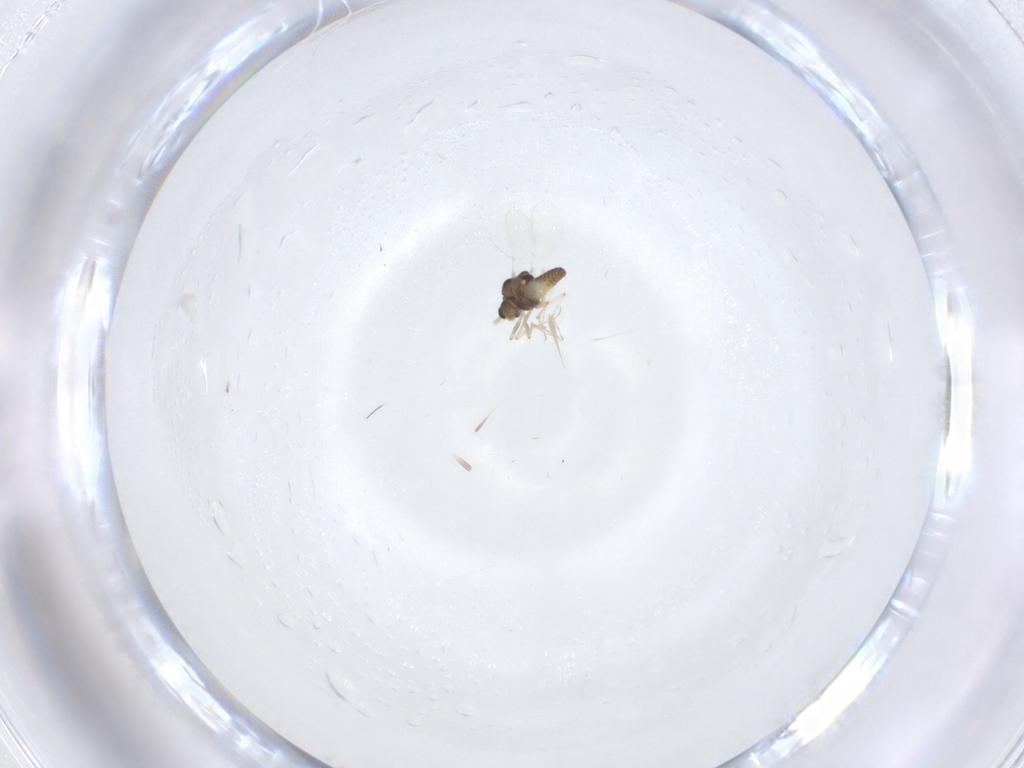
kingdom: Animalia
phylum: Arthropoda
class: Insecta
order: Diptera
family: Chironomidae
